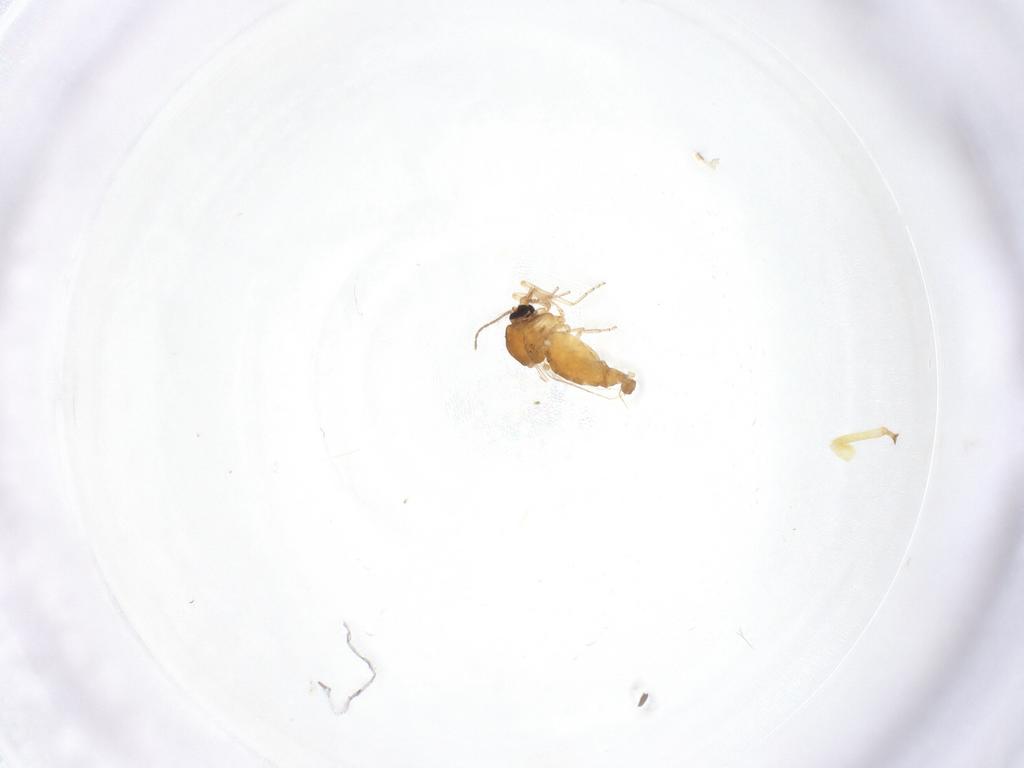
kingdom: Animalia
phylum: Arthropoda
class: Insecta
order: Diptera
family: Ceratopogonidae
